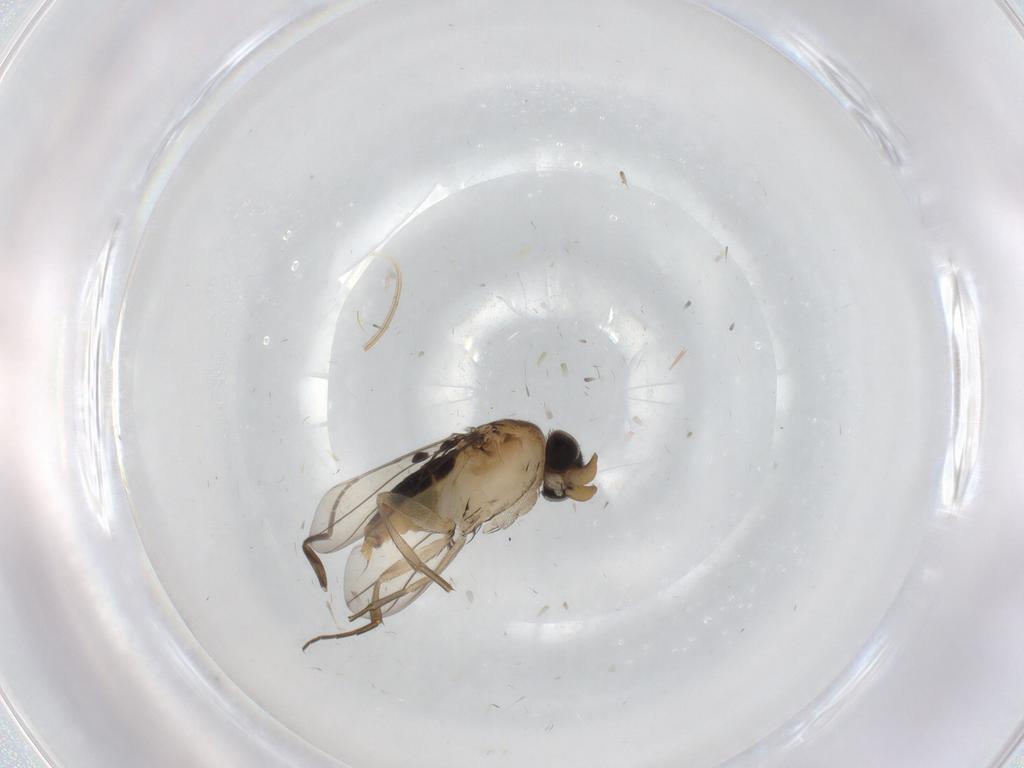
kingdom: Animalia
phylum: Arthropoda
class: Insecta
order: Diptera
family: Phoridae
